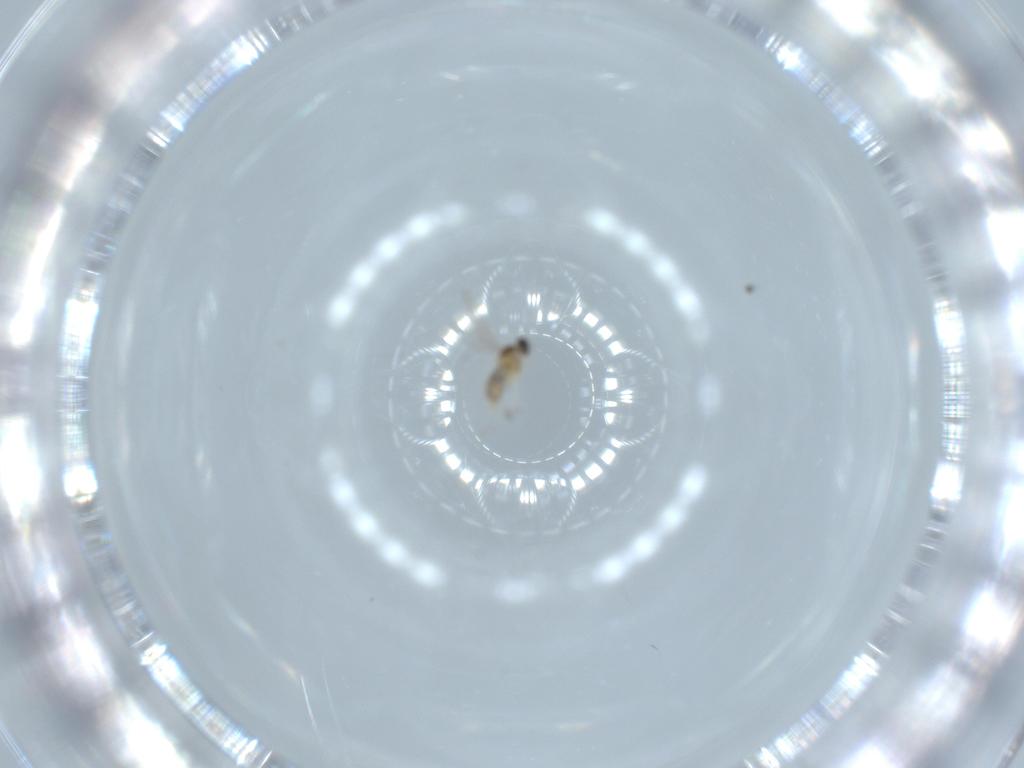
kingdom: Animalia
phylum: Arthropoda
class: Insecta
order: Diptera
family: Cecidomyiidae
